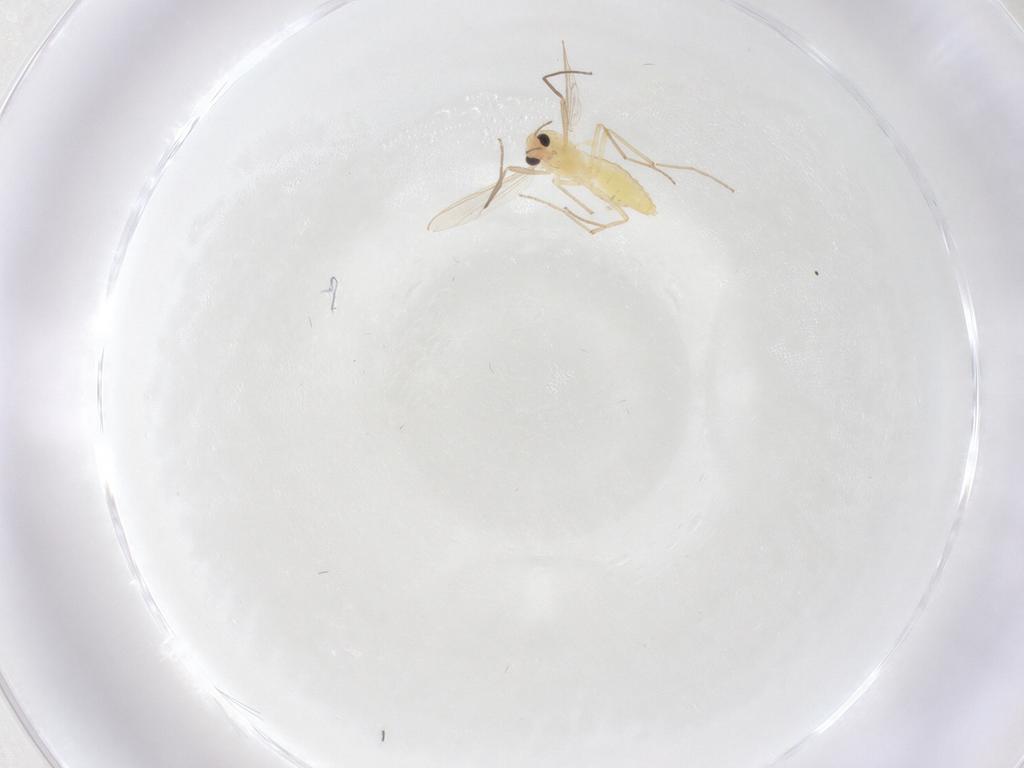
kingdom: Animalia
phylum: Arthropoda
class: Insecta
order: Diptera
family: Chironomidae
